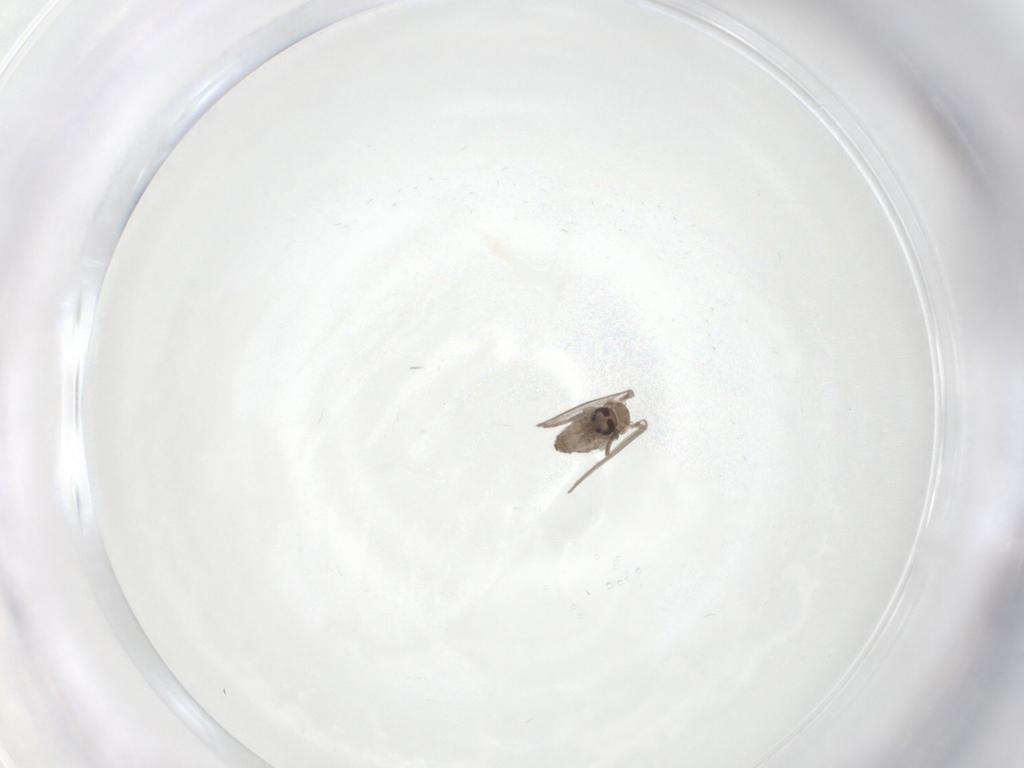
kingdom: Animalia
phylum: Arthropoda
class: Insecta
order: Diptera
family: Psychodidae
